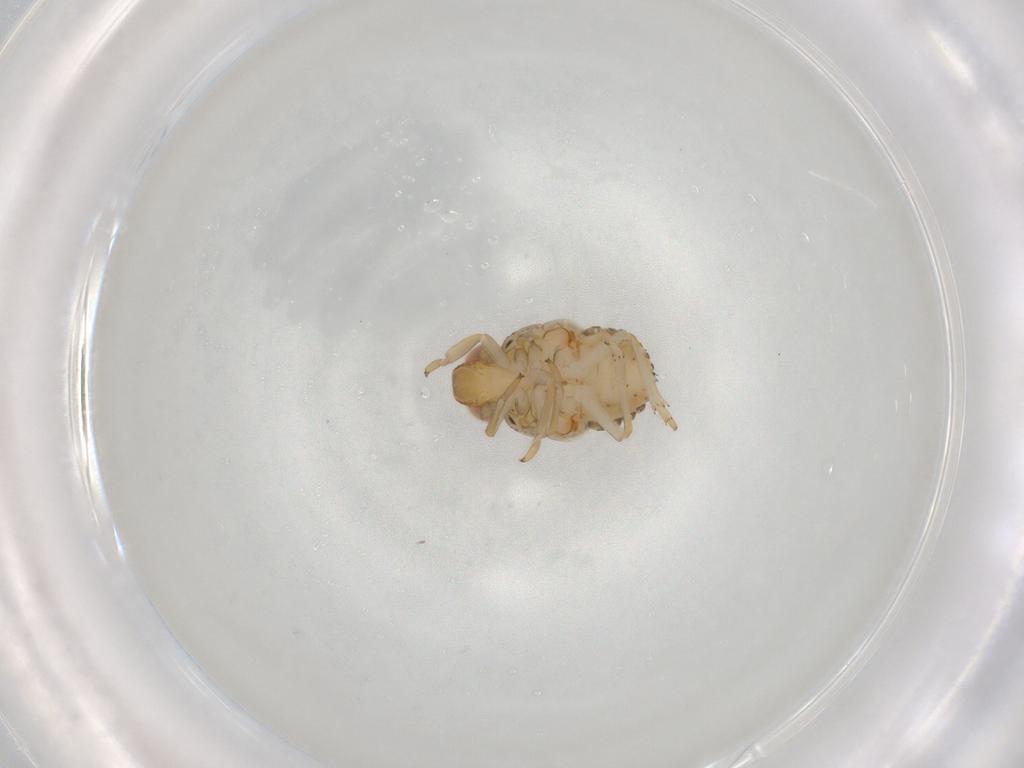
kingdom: Animalia
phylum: Arthropoda
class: Insecta
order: Hemiptera
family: Issidae
